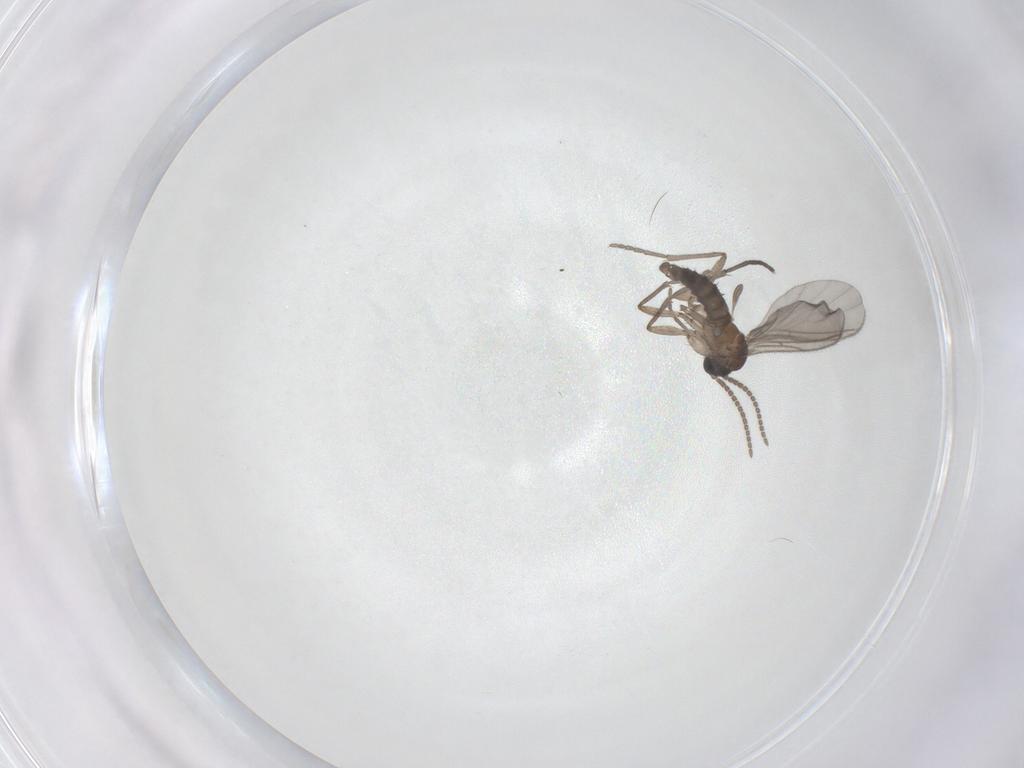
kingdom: Animalia
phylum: Arthropoda
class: Insecta
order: Diptera
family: Sciaridae
